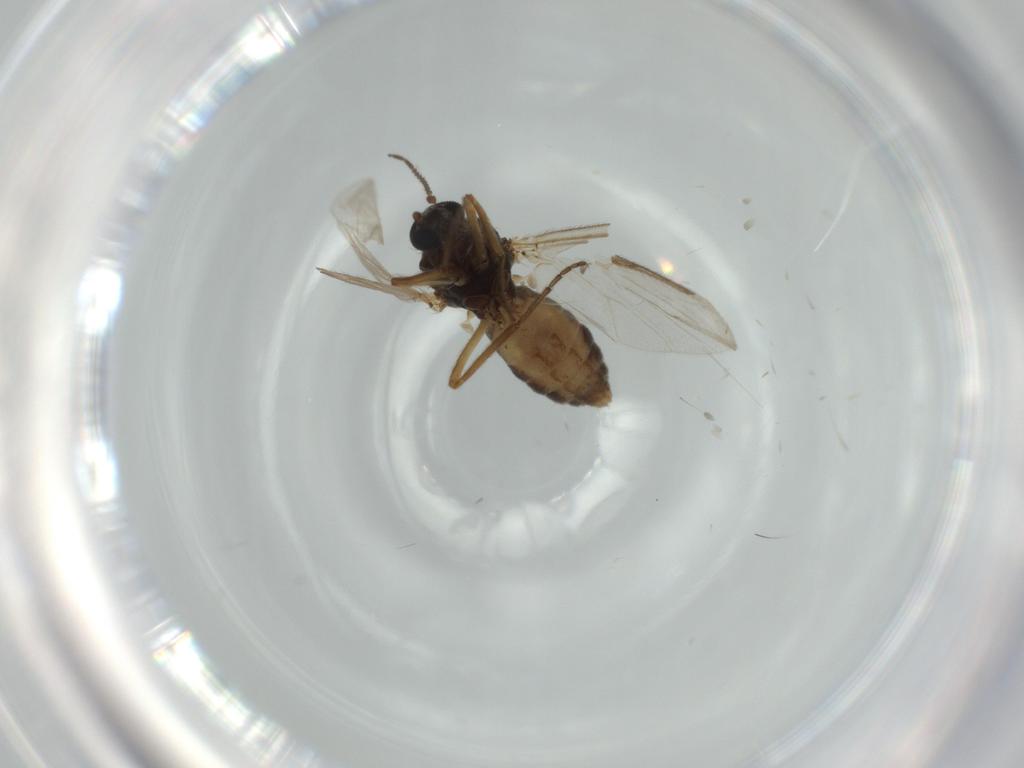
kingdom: Animalia
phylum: Arthropoda
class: Insecta
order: Diptera
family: Ceratopogonidae
